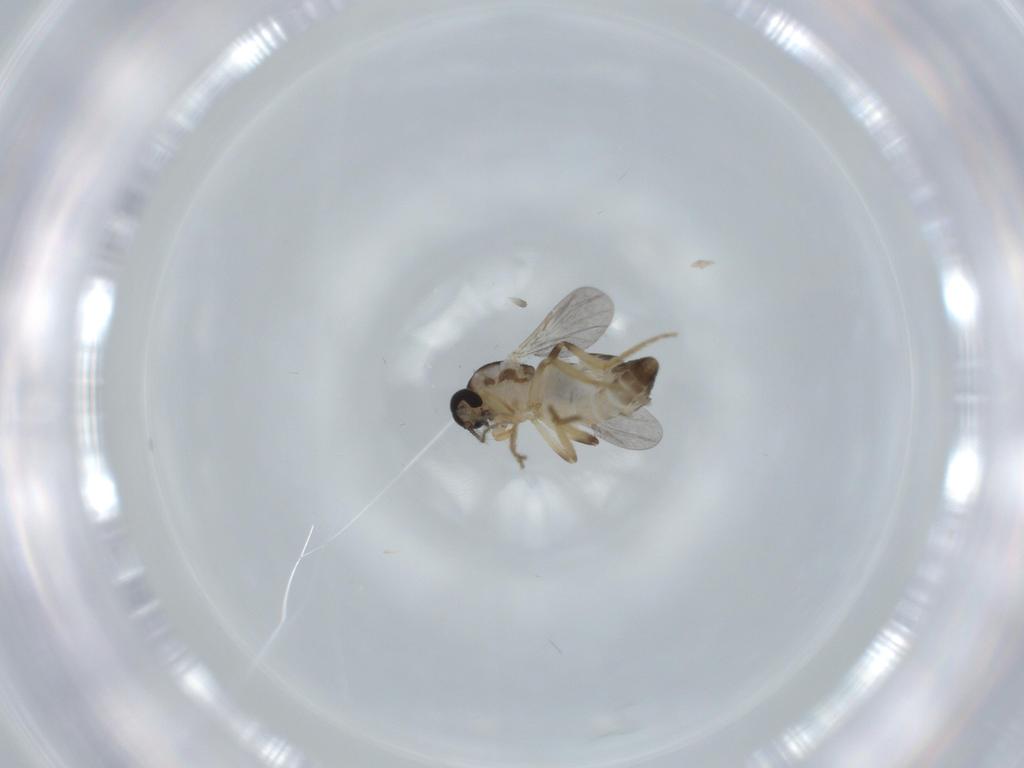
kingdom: Animalia
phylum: Arthropoda
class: Insecta
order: Diptera
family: Ceratopogonidae
